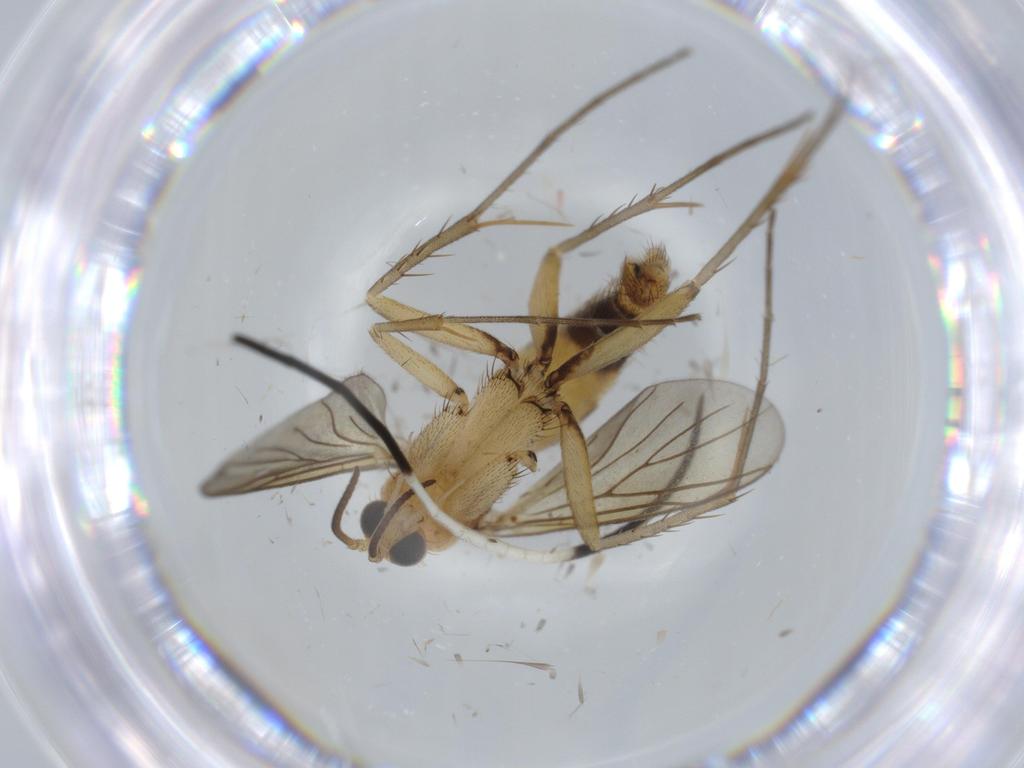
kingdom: Animalia
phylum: Arthropoda
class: Insecta
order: Diptera
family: Mycetophilidae
